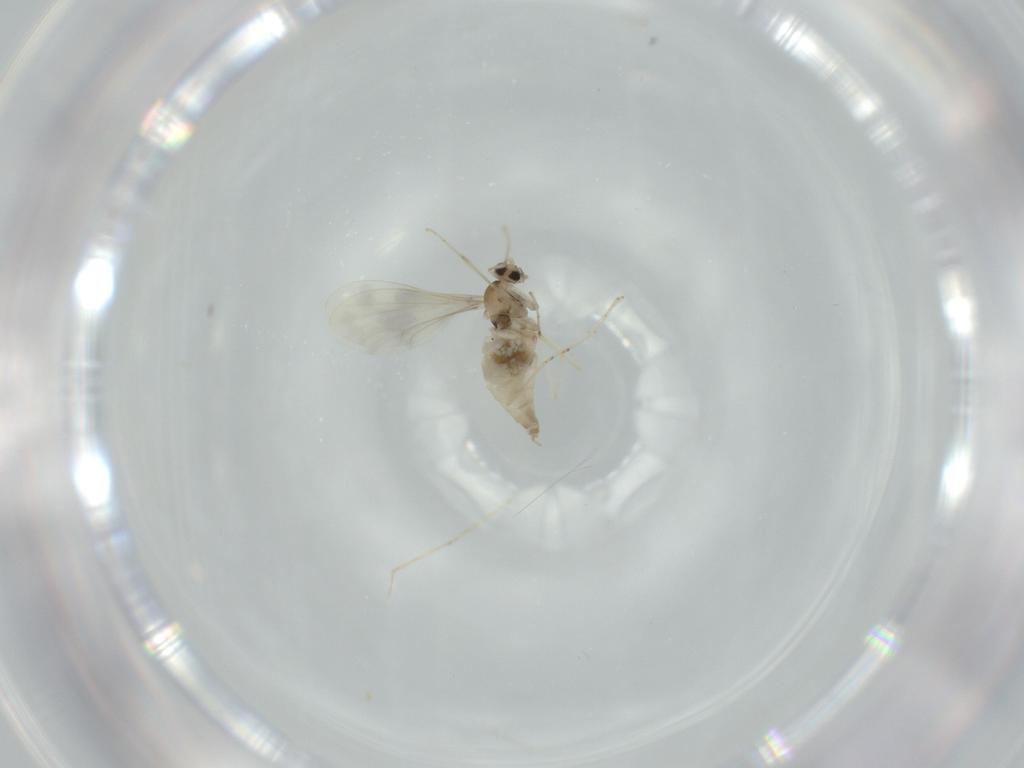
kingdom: Animalia
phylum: Arthropoda
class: Insecta
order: Diptera
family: Cecidomyiidae
